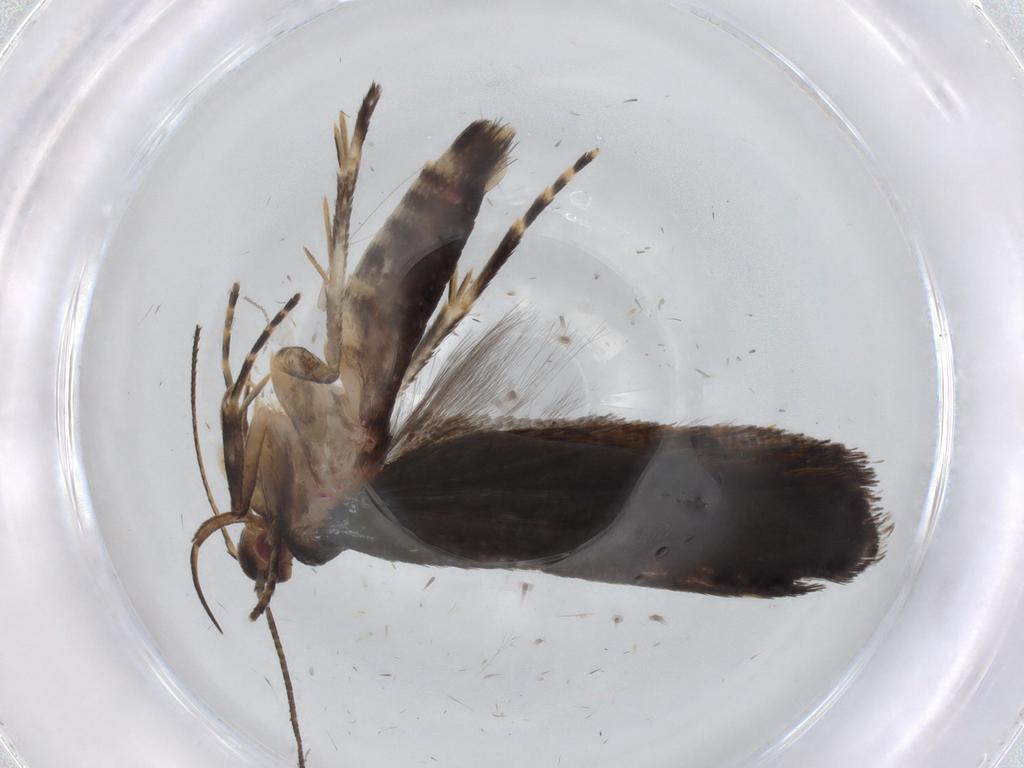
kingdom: Animalia
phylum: Arthropoda
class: Insecta
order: Lepidoptera
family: Gelechiidae
